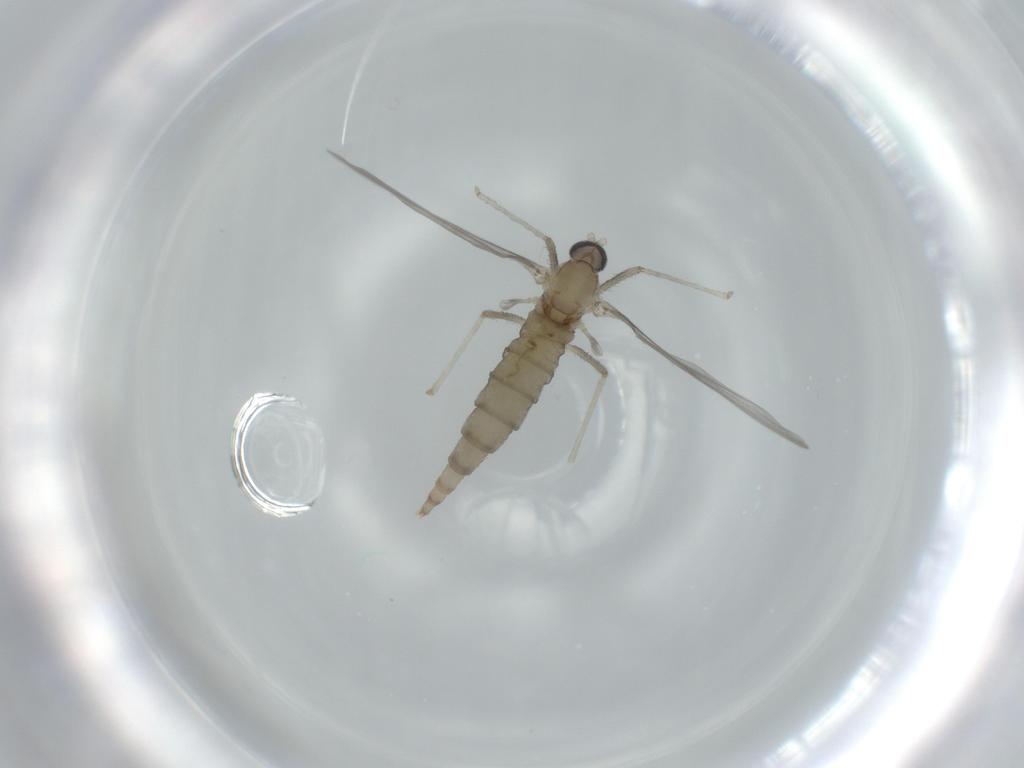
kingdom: Animalia
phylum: Arthropoda
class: Insecta
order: Diptera
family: Cecidomyiidae
